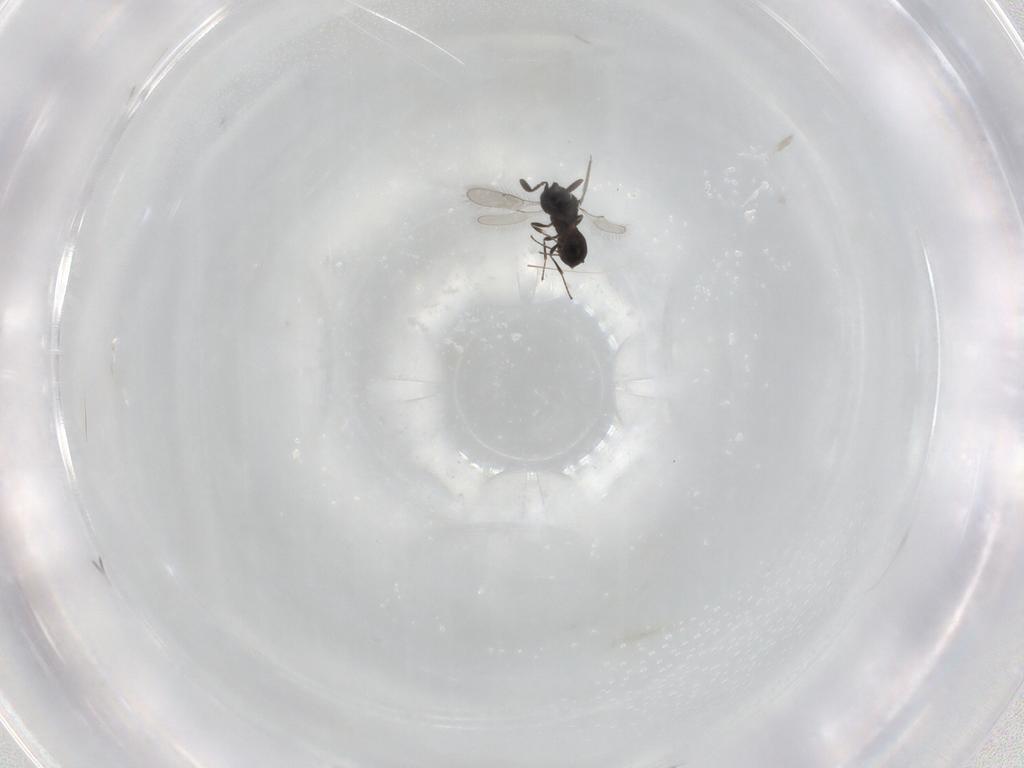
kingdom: Animalia
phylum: Arthropoda
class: Insecta
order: Hymenoptera
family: Scelionidae
